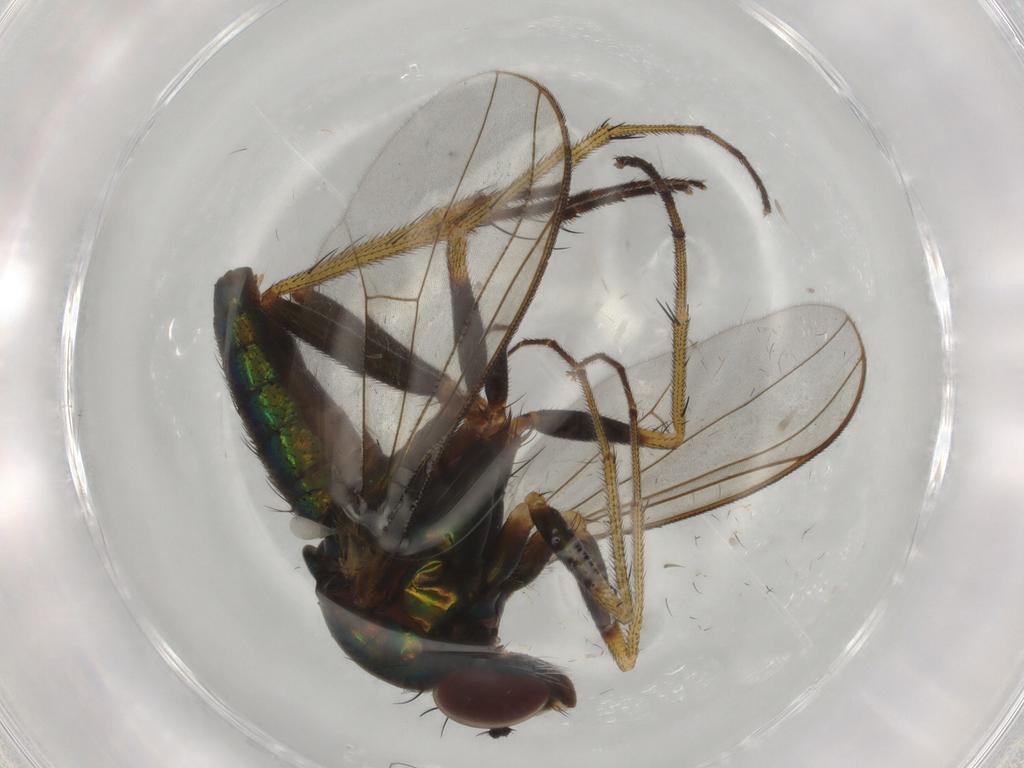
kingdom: Animalia
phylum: Arthropoda
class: Insecta
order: Diptera
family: Dolichopodidae
